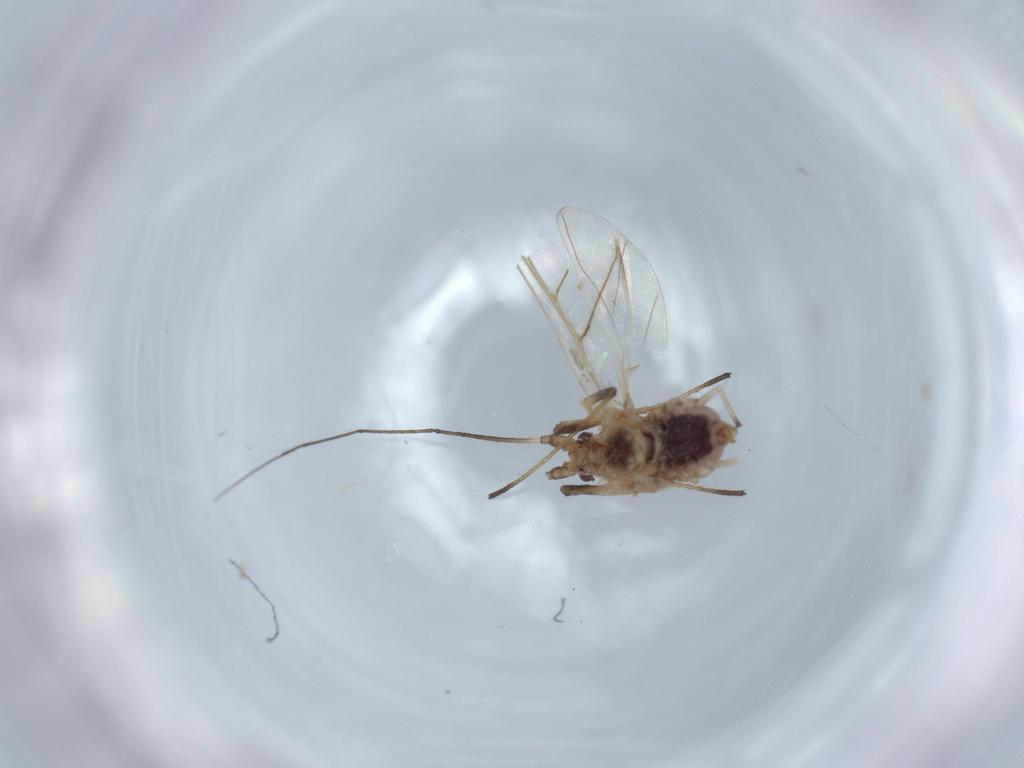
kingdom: Animalia
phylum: Arthropoda
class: Insecta
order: Hemiptera
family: Aphididae
